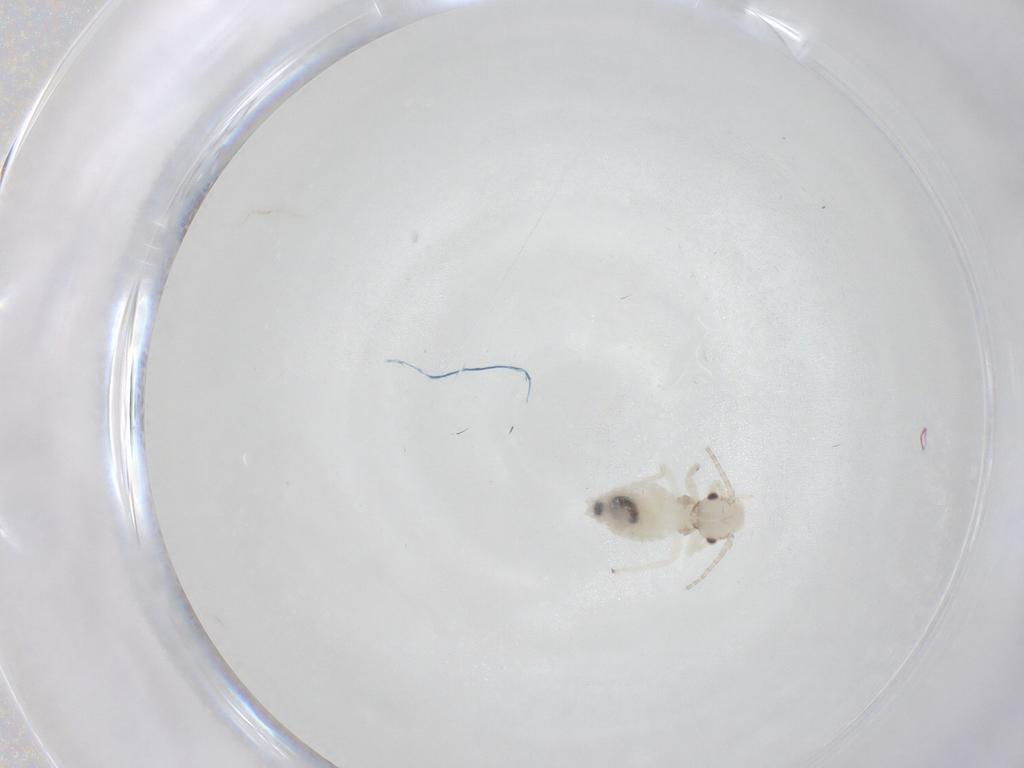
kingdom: Animalia
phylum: Arthropoda
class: Insecta
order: Psocodea
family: Amphipsocidae
